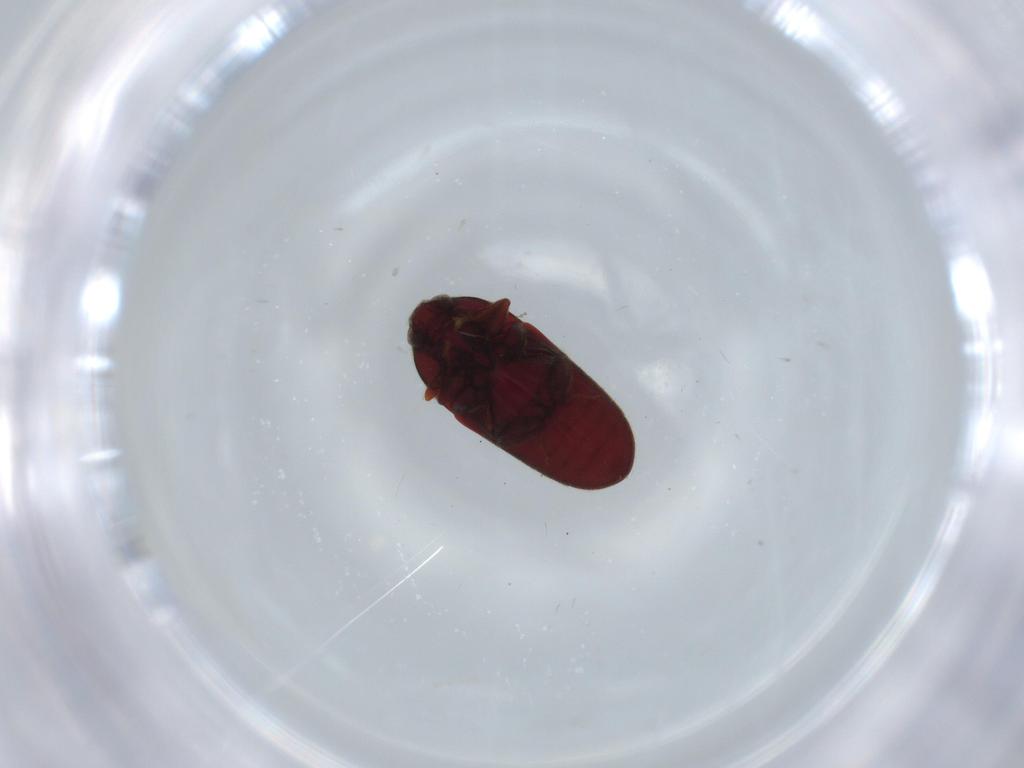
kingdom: Animalia
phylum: Arthropoda
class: Insecta
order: Coleoptera
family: Throscidae
